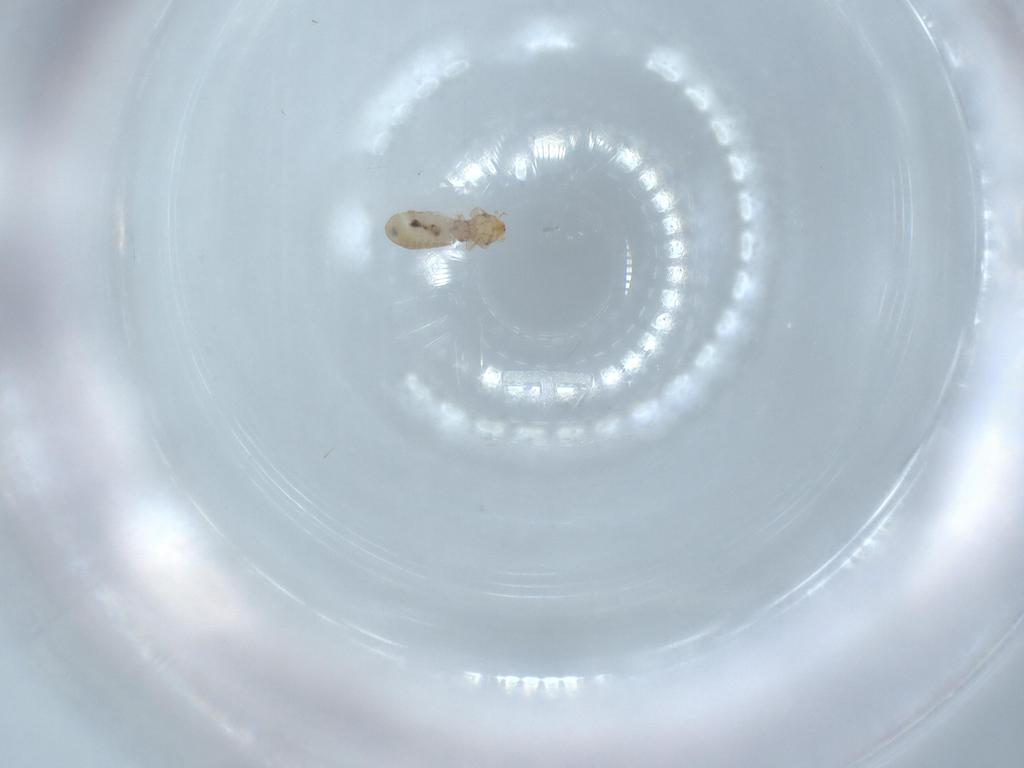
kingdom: Animalia
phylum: Arthropoda
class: Insecta
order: Psocodea
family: Liposcelididae
